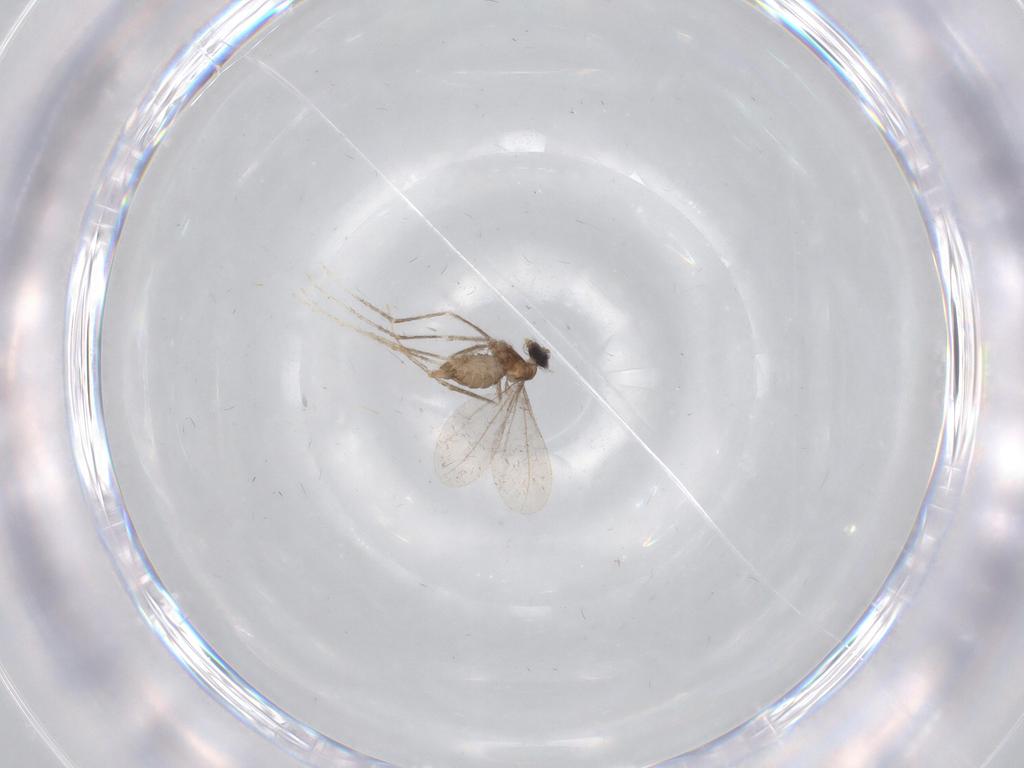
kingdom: Animalia
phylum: Arthropoda
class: Insecta
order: Diptera
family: Cecidomyiidae
